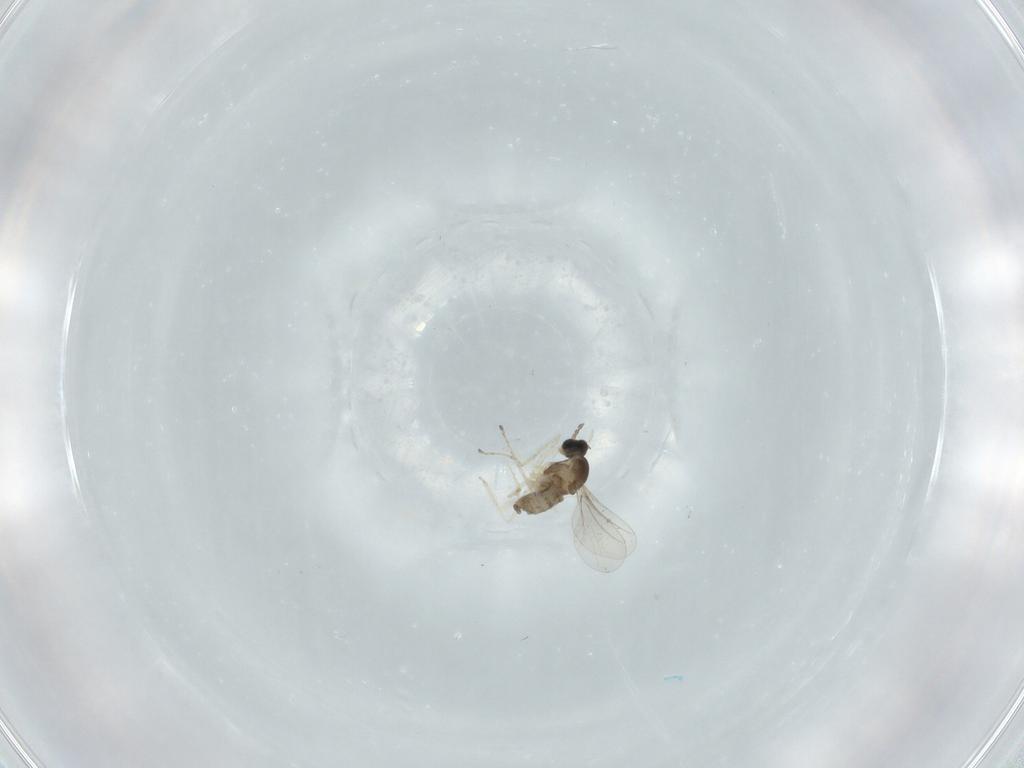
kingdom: Animalia
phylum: Arthropoda
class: Insecta
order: Diptera
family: Cecidomyiidae
